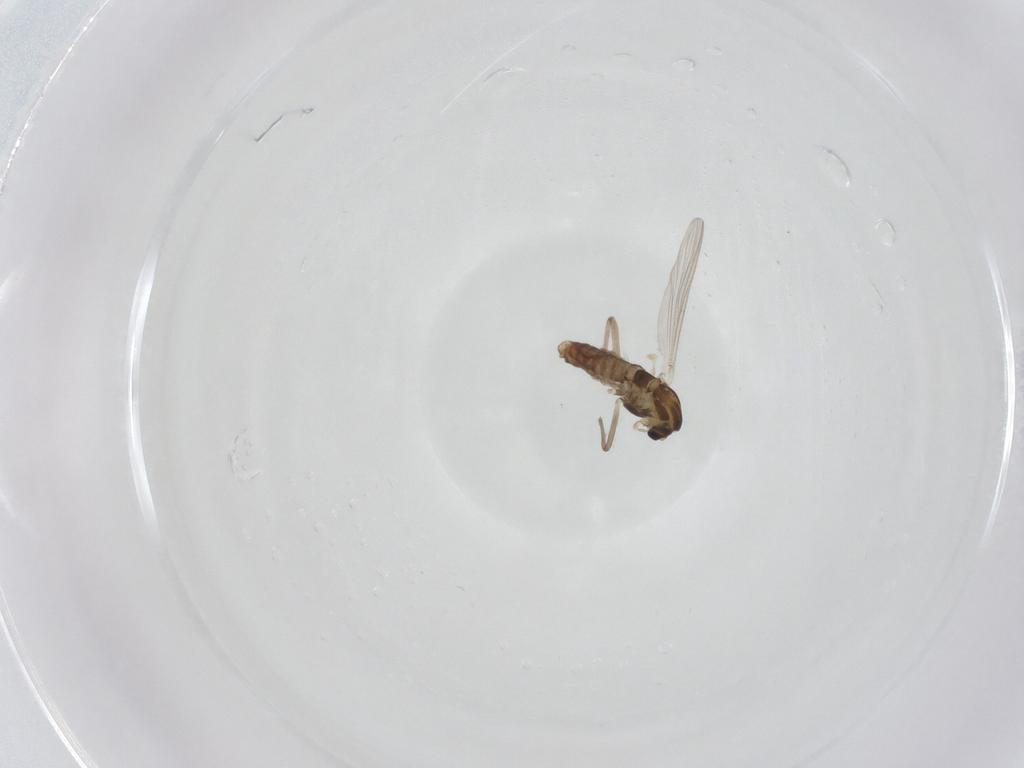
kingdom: Animalia
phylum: Arthropoda
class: Insecta
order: Diptera
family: Chironomidae
